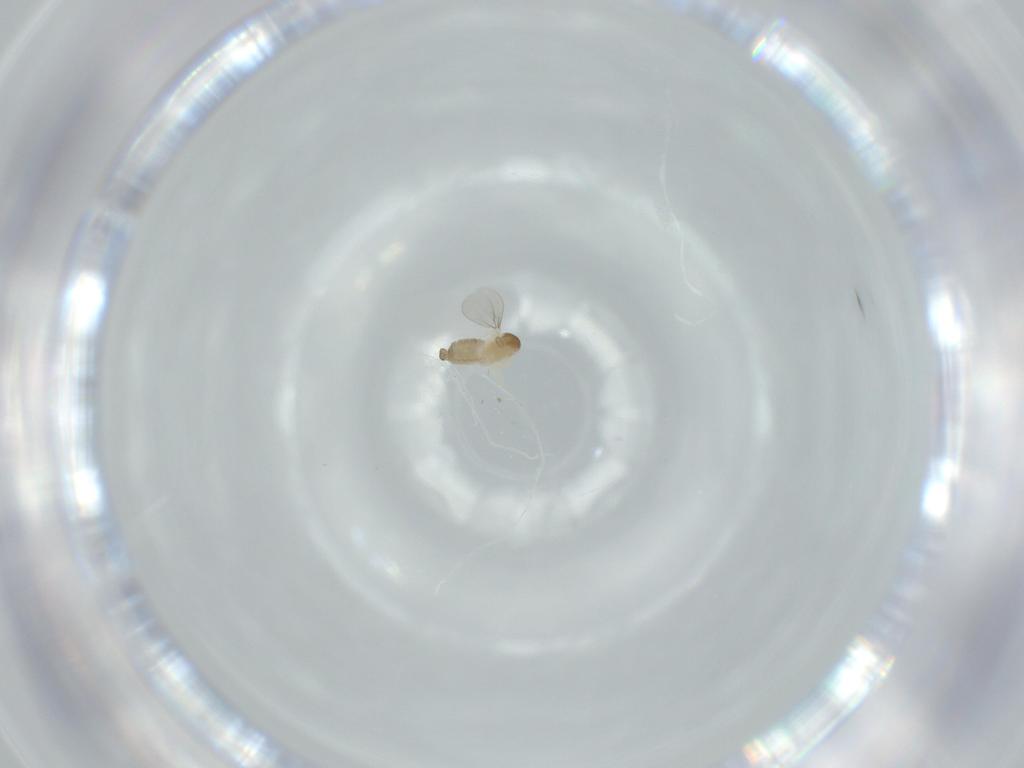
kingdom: Animalia
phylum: Arthropoda
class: Insecta
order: Diptera
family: Cecidomyiidae
